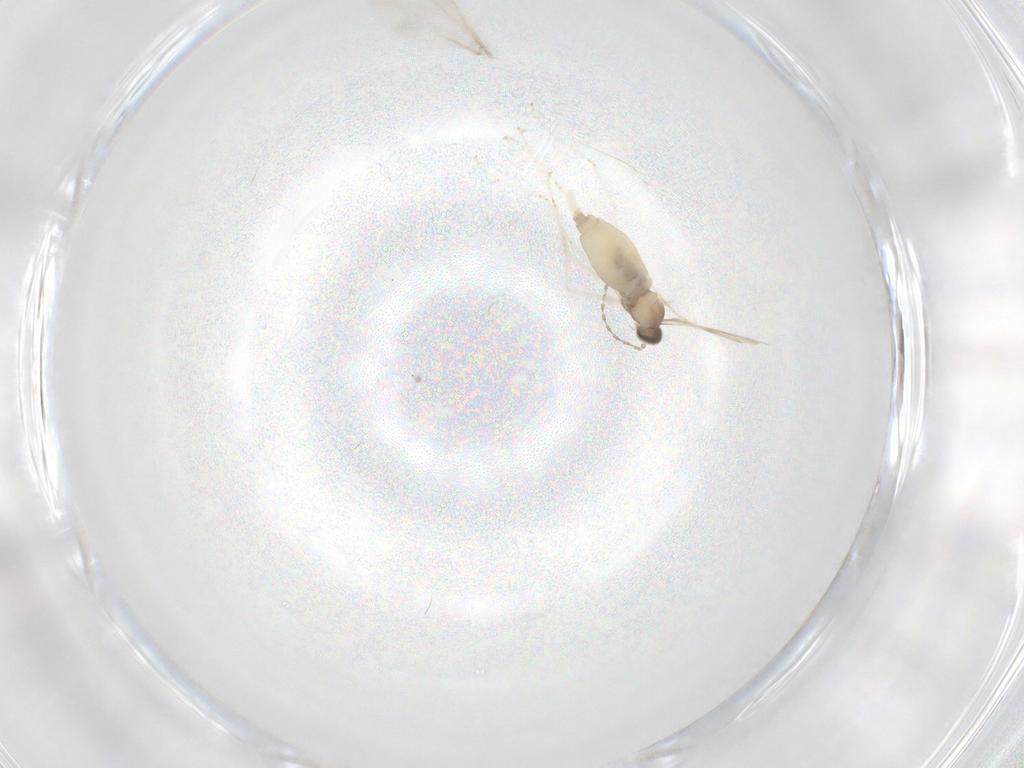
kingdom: Animalia
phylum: Arthropoda
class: Insecta
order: Diptera
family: Cecidomyiidae
